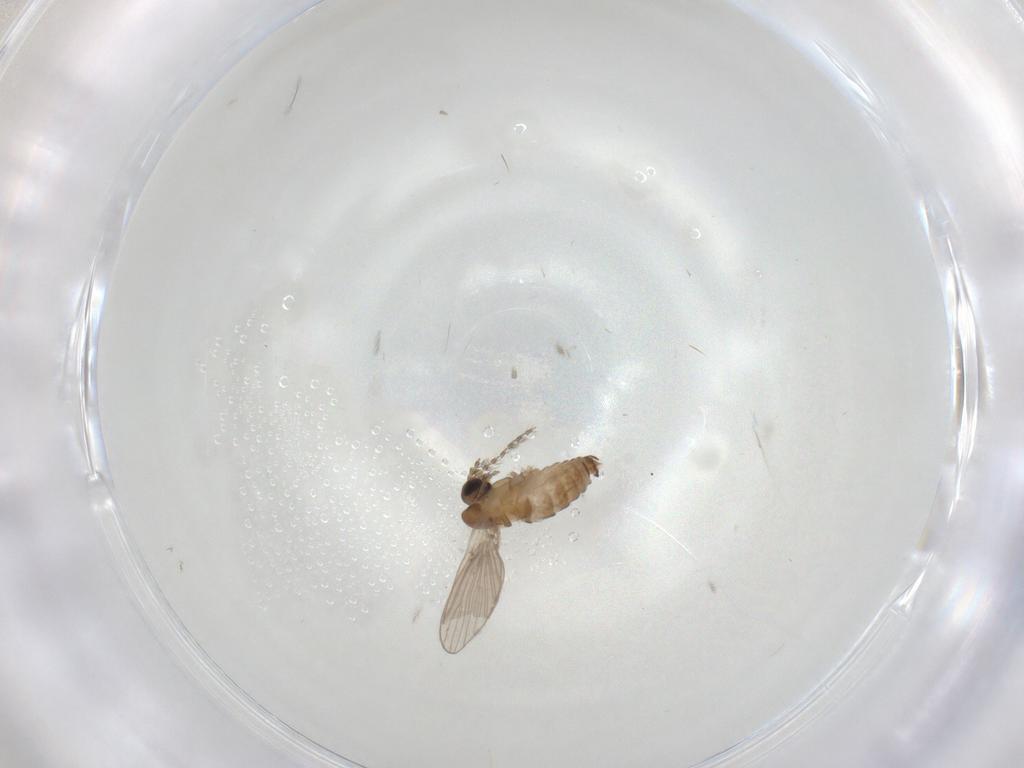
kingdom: Animalia
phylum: Arthropoda
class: Insecta
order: Diptera
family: Psychodidae
